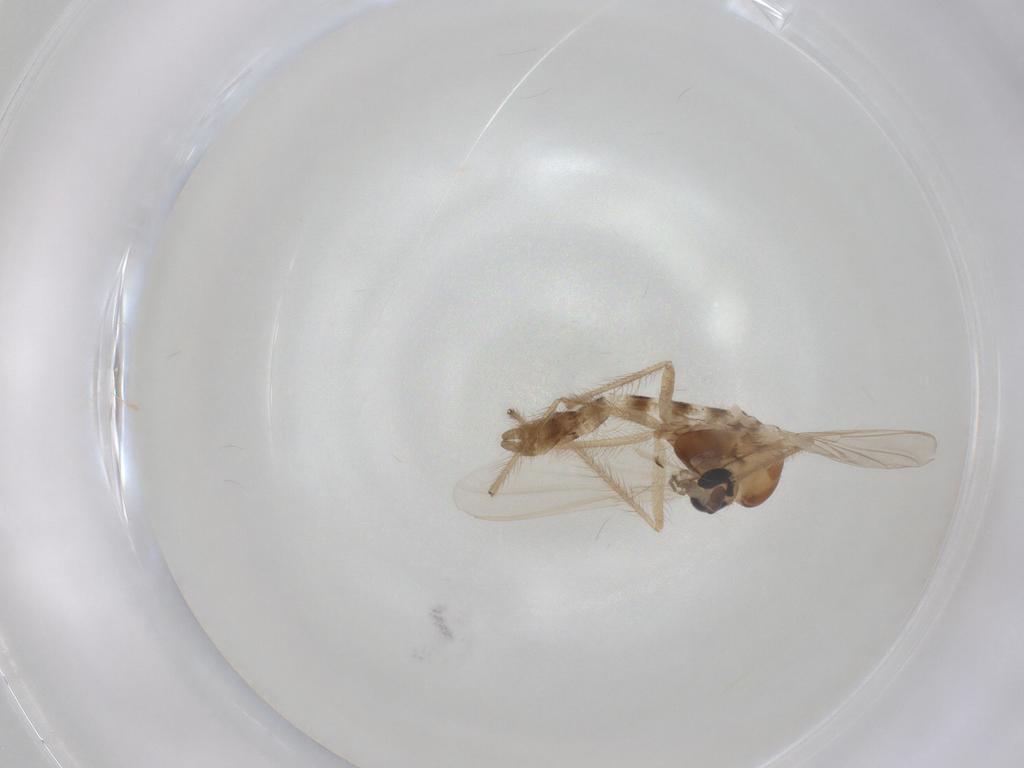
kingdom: Animalia
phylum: Arthropoda
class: Insecta
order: Diptera
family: Chironomidae
